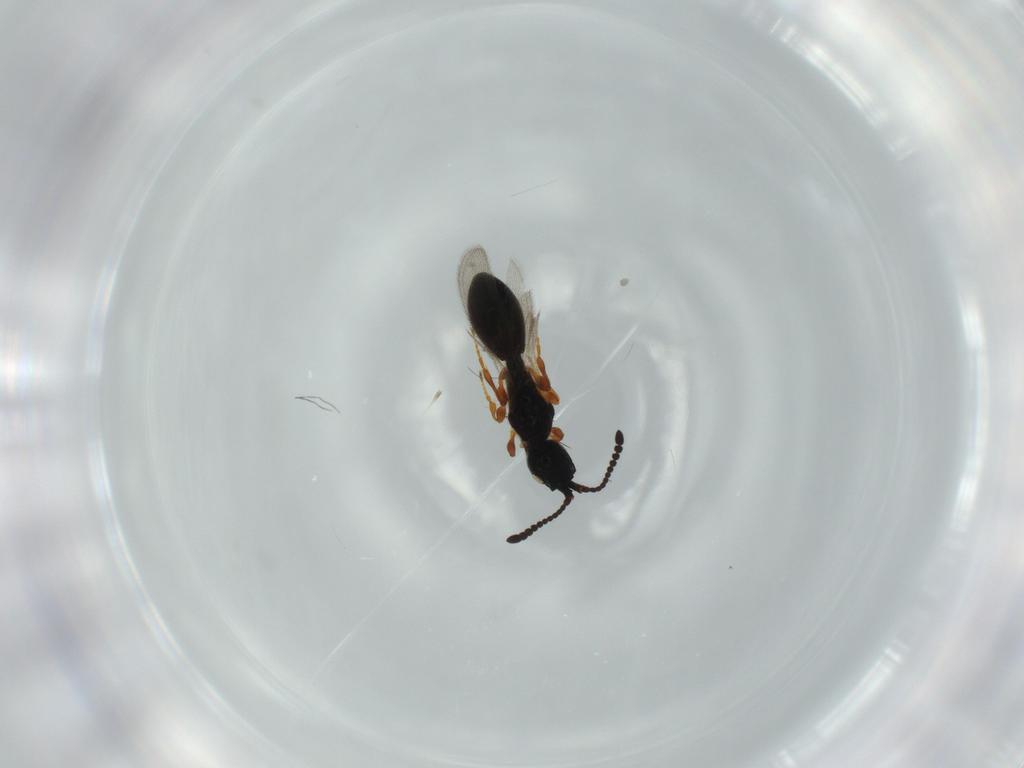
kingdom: Animalia
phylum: Arthropoda
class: Insecta
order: Hymenoptera
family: Diapriidae
